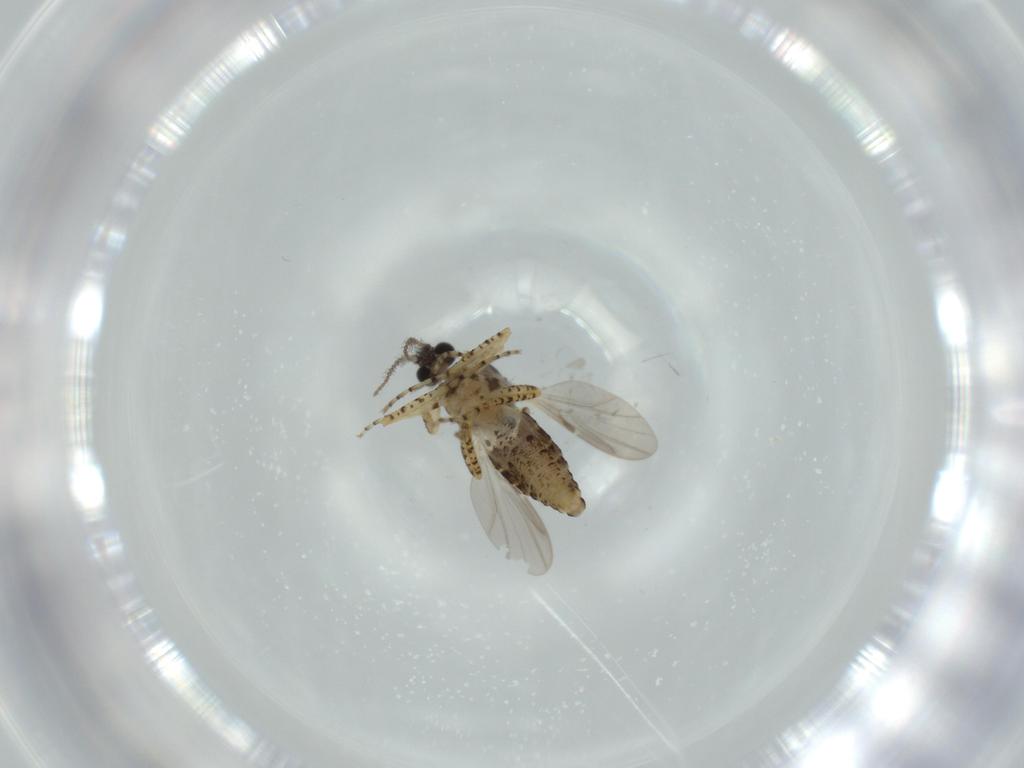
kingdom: Animalia
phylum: Arthropoda
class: Insecta
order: Diptera
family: Ceratopogonidae
